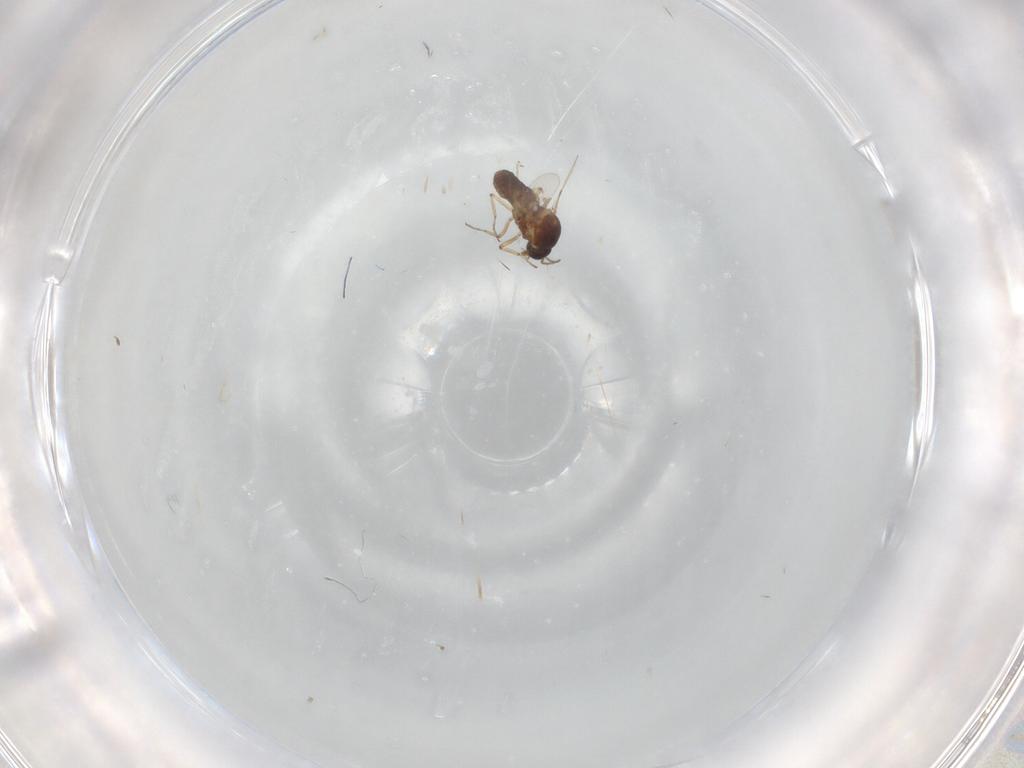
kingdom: Animalia
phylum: Arthropoda
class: Insecta
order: Diptera
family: Ceratopogonidae
